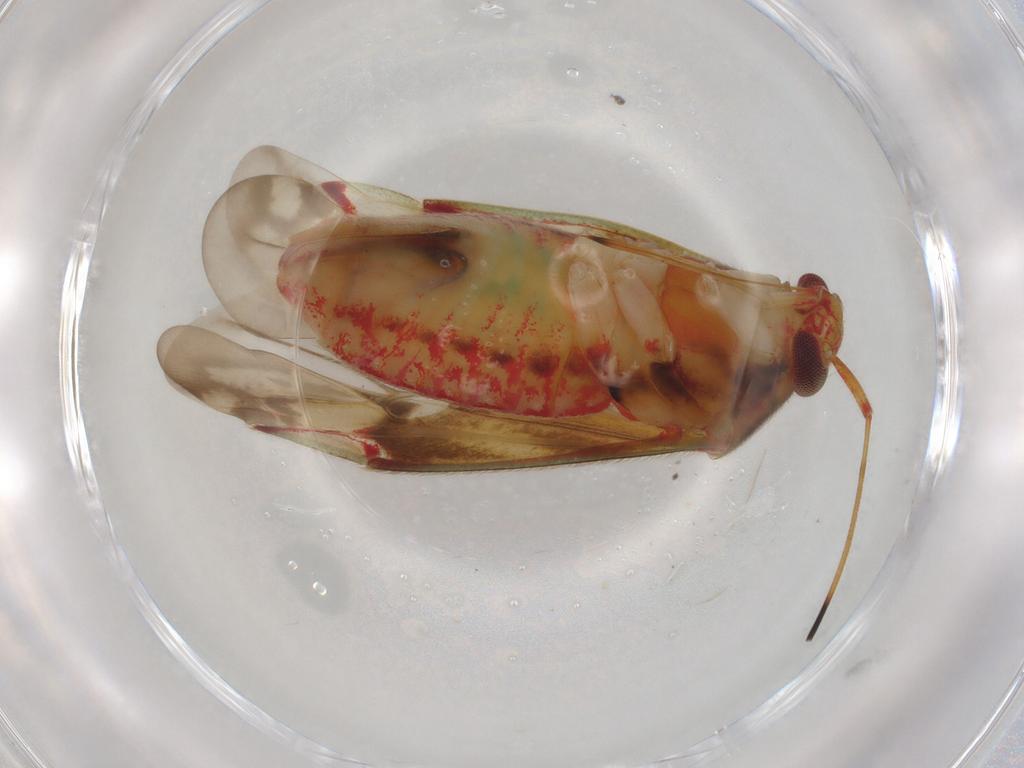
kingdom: Animalia
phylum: Arthropoda
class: Insecta
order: Hemiptera
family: Miridae
